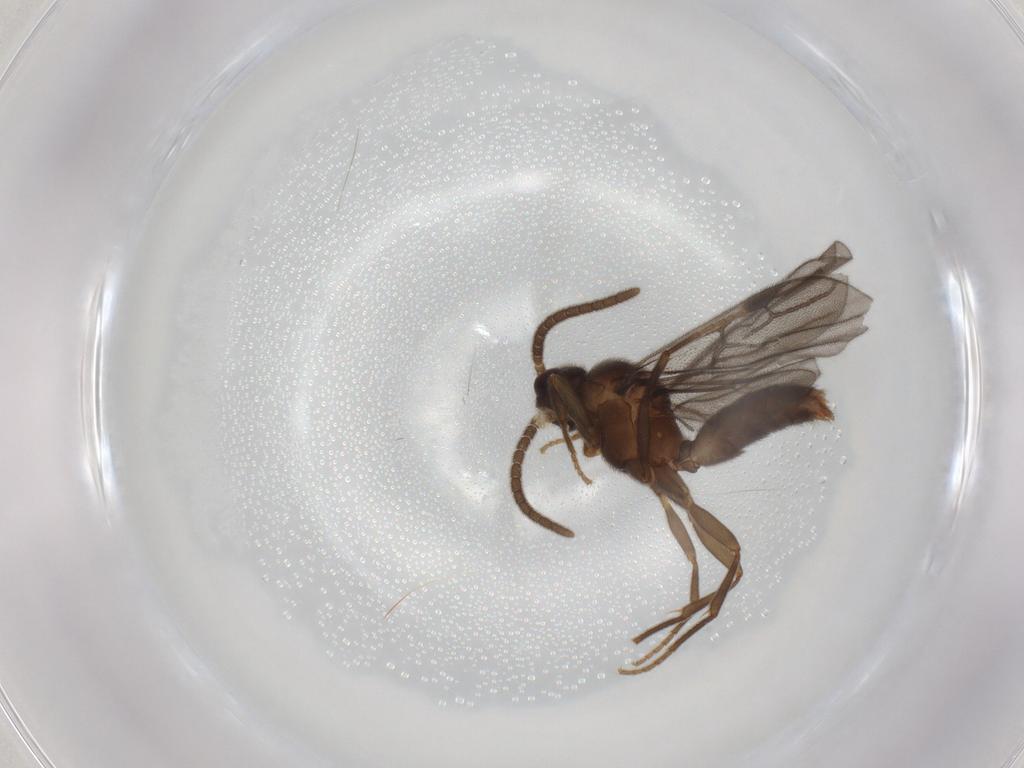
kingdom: Animalia
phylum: Arthropoda
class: Insecta
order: Hymenoptera
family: Formicidae
